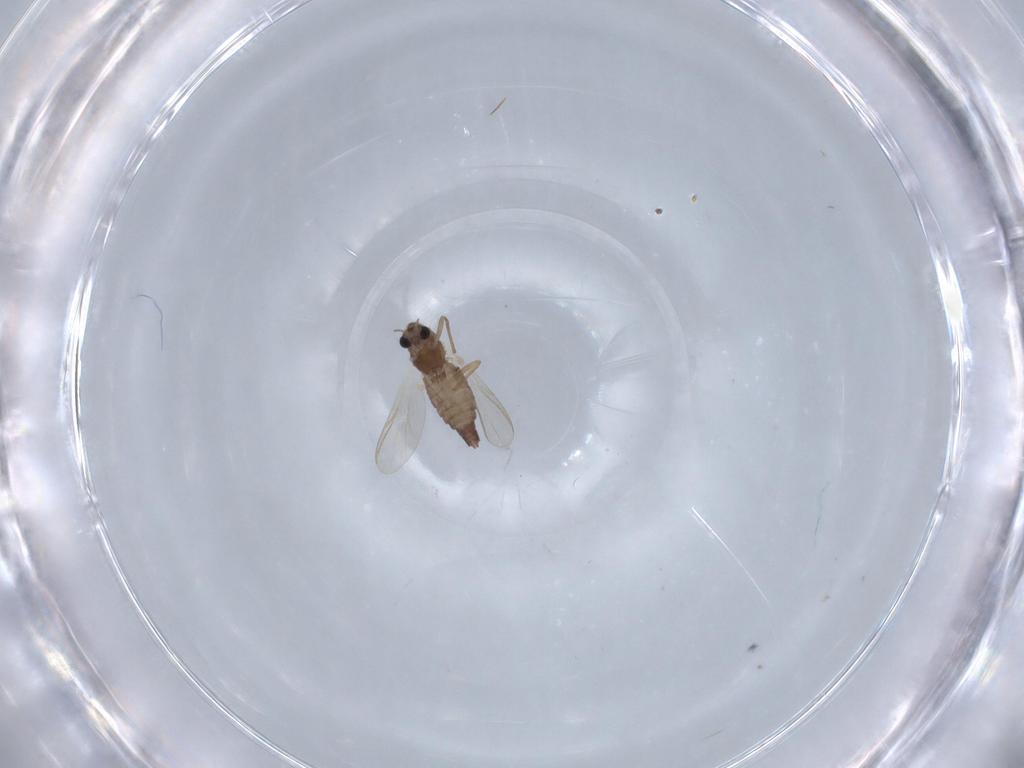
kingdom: Animalia
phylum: Arthropoda
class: Insecta
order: Diptera
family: Chironomidae
